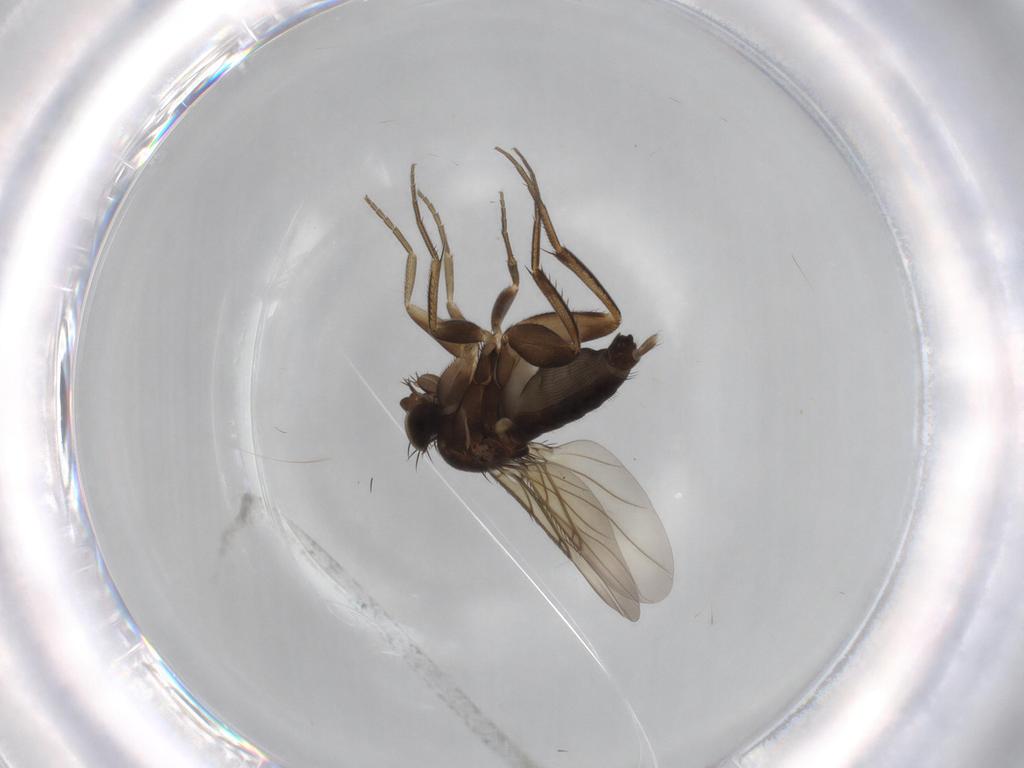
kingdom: Animalia
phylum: Arthropoda
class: Insecta
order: Diptera
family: Phoridae
